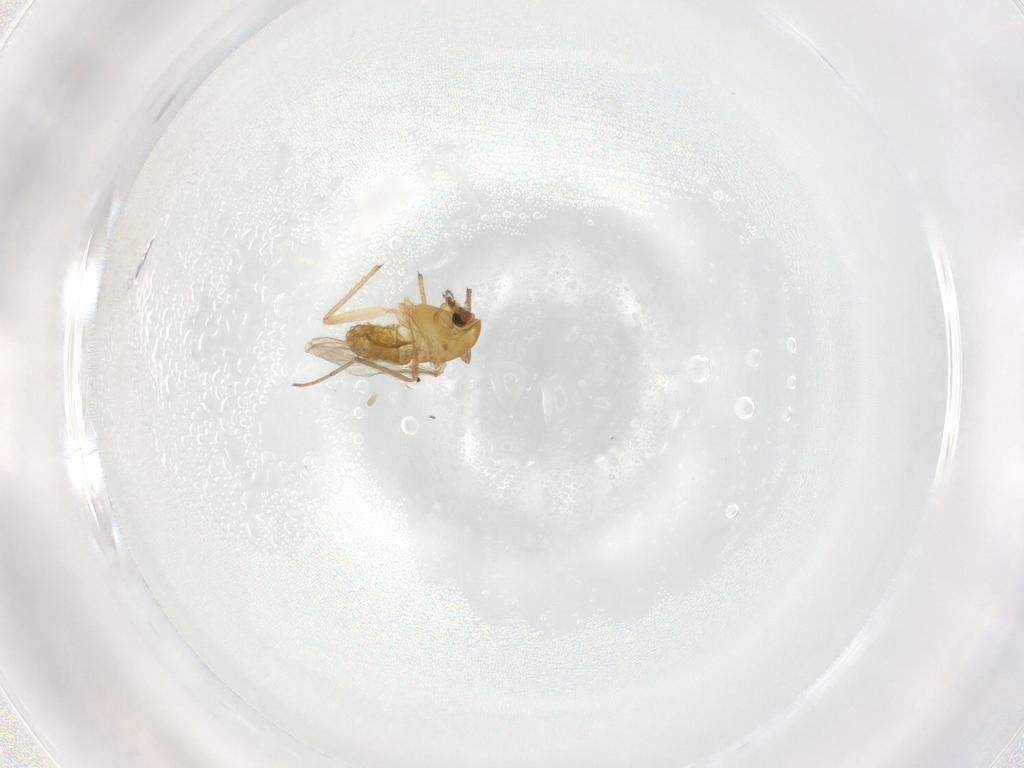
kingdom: Animalia
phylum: Arthropoda
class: Insecta
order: Diptera
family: Chironomidae
